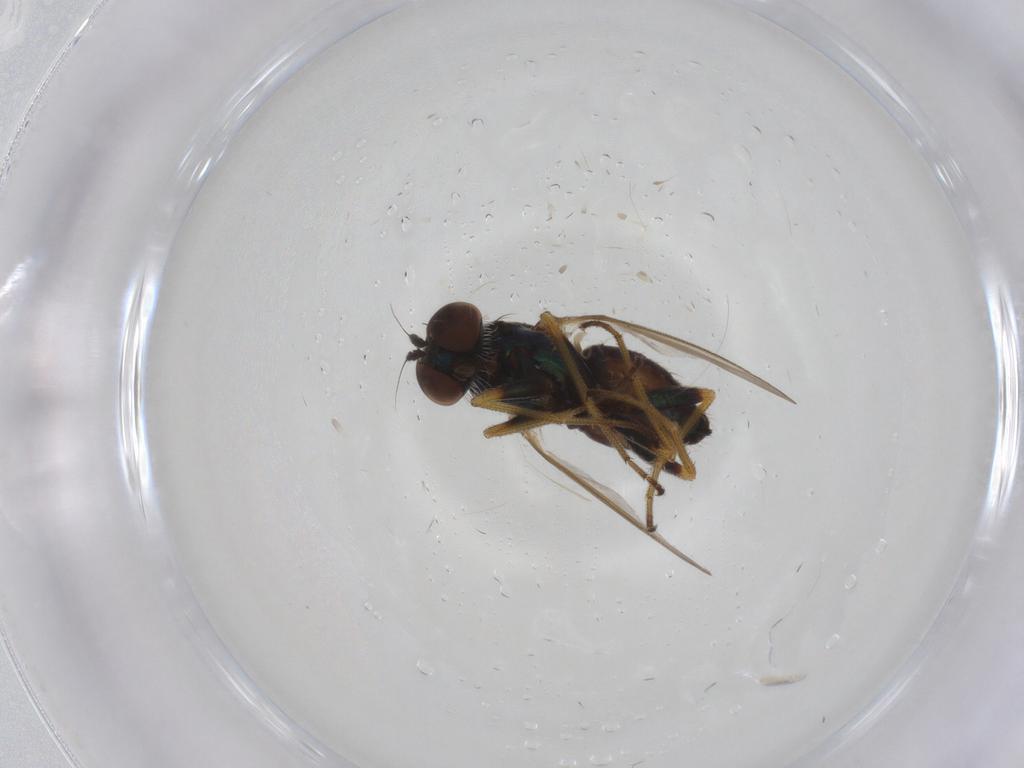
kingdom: Animalia
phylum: Arthropoda
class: Insecta
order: Diptera
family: Dolichopodidae
